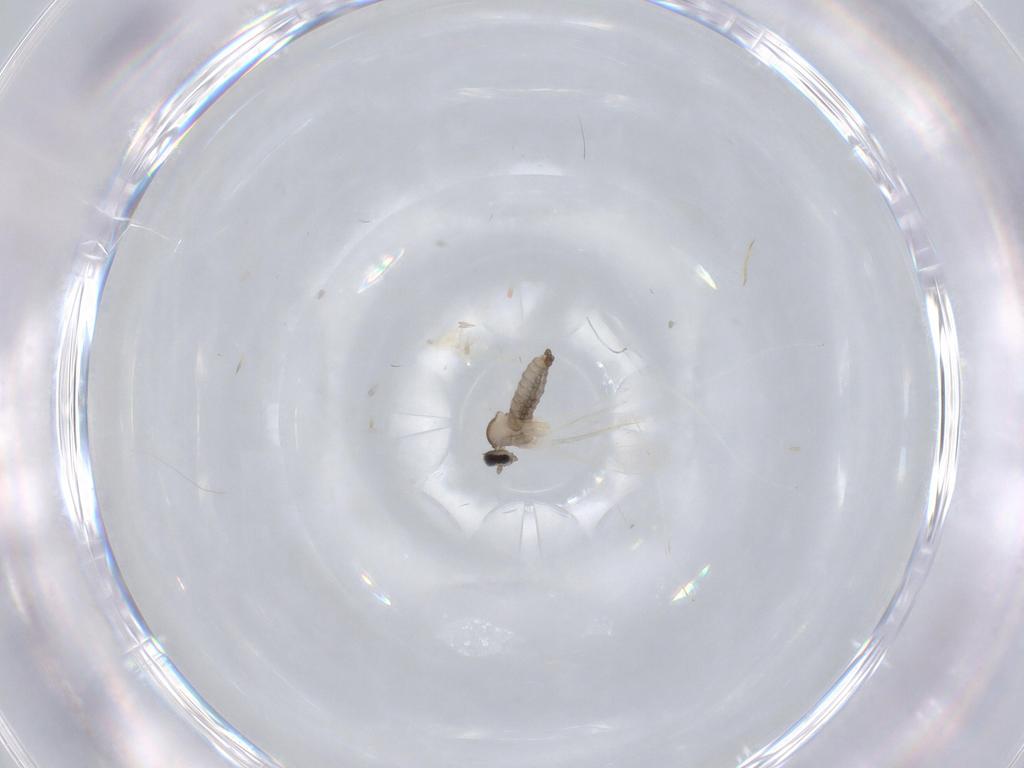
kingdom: Animalia
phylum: Arthropoda
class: Insecta
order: Diptera
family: Cecidomyiidae
